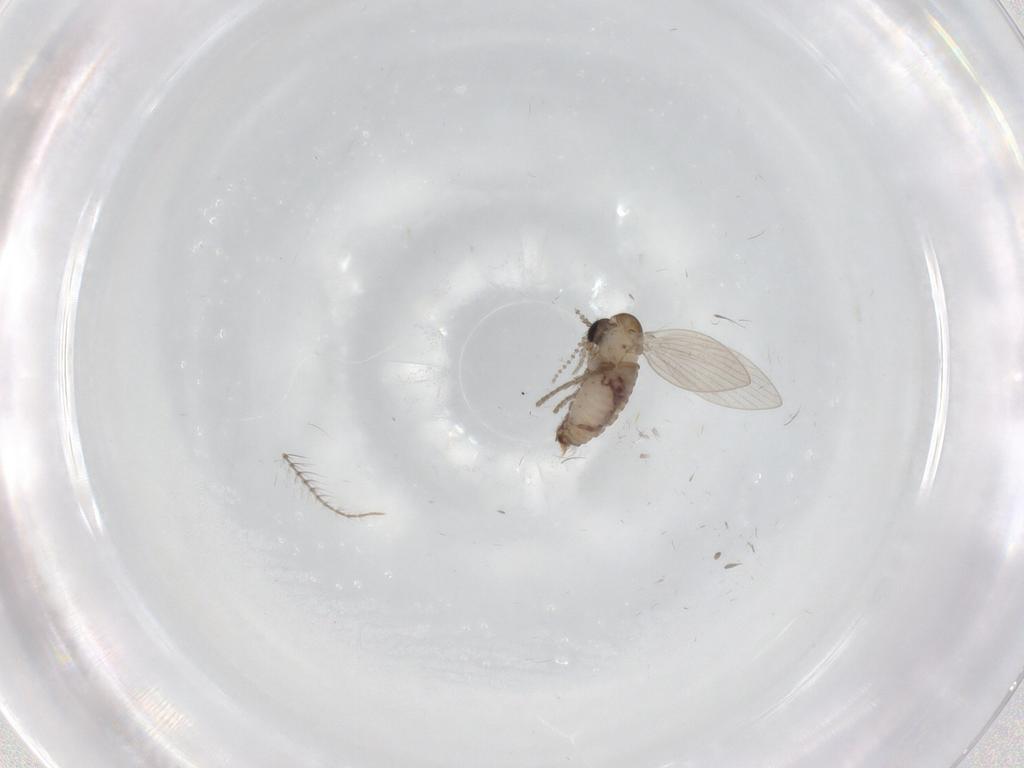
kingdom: Animalia
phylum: Arthropoda
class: Insecta
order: Diptera
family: Psychodidae
